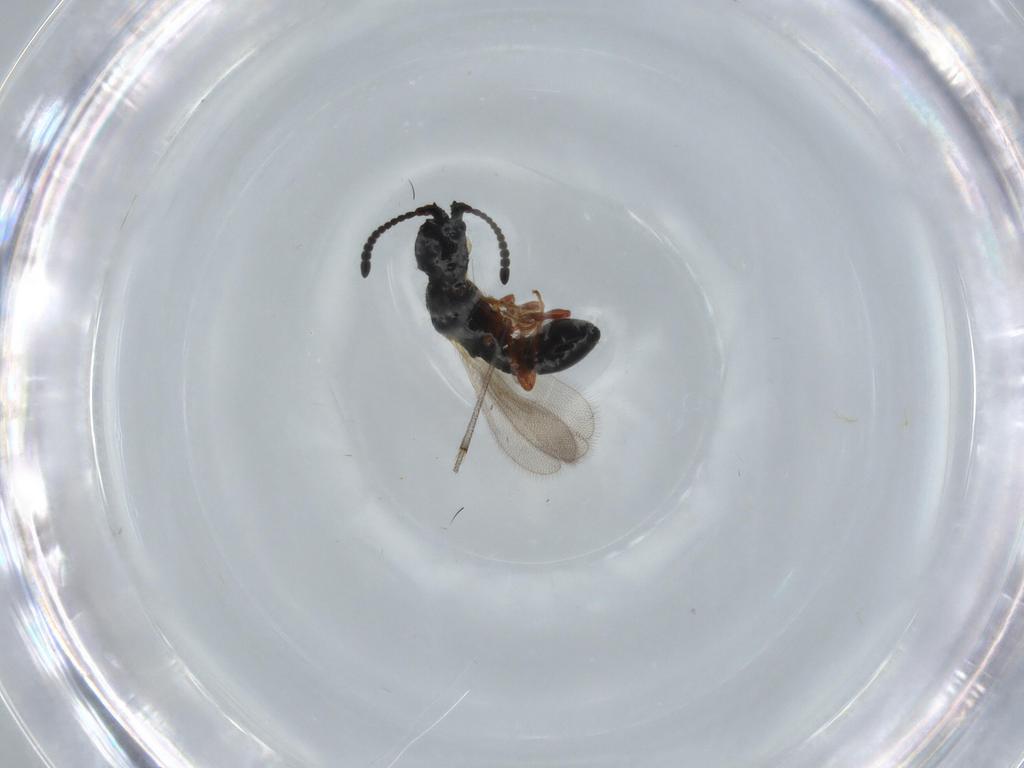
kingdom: Animalia
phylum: Arthropoda
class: Insecta
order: Hymenoptera
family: Diapriidae
